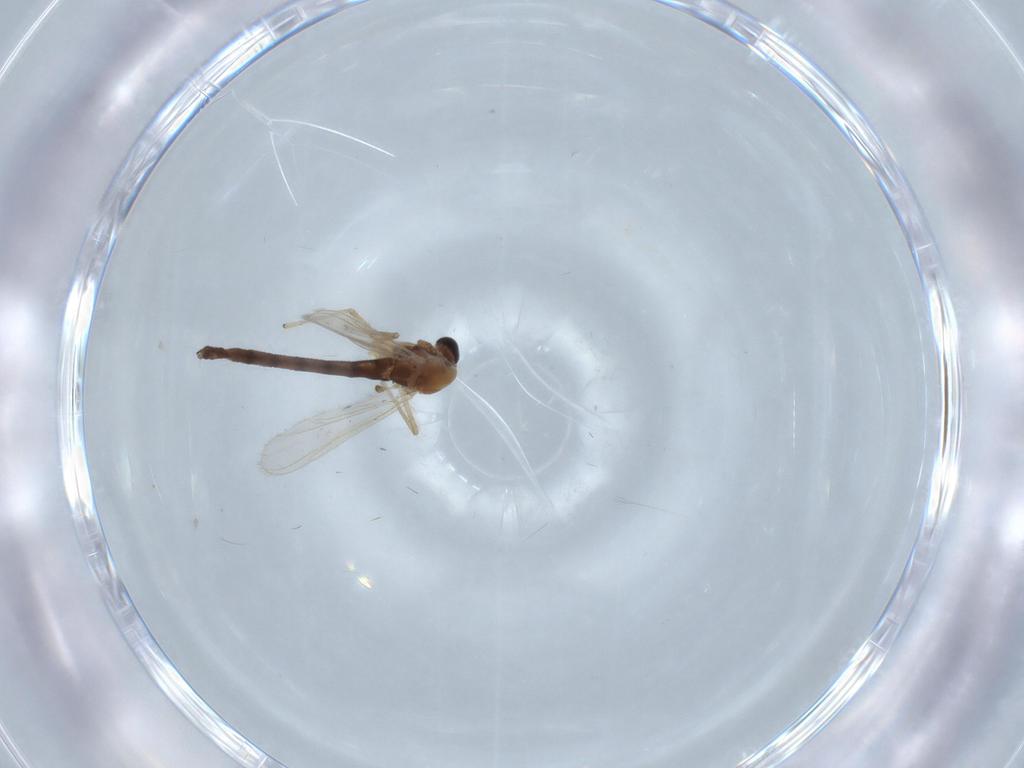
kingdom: Animalia
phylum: Arthropoda
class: Insecta
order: Diptera
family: Chironomidae
